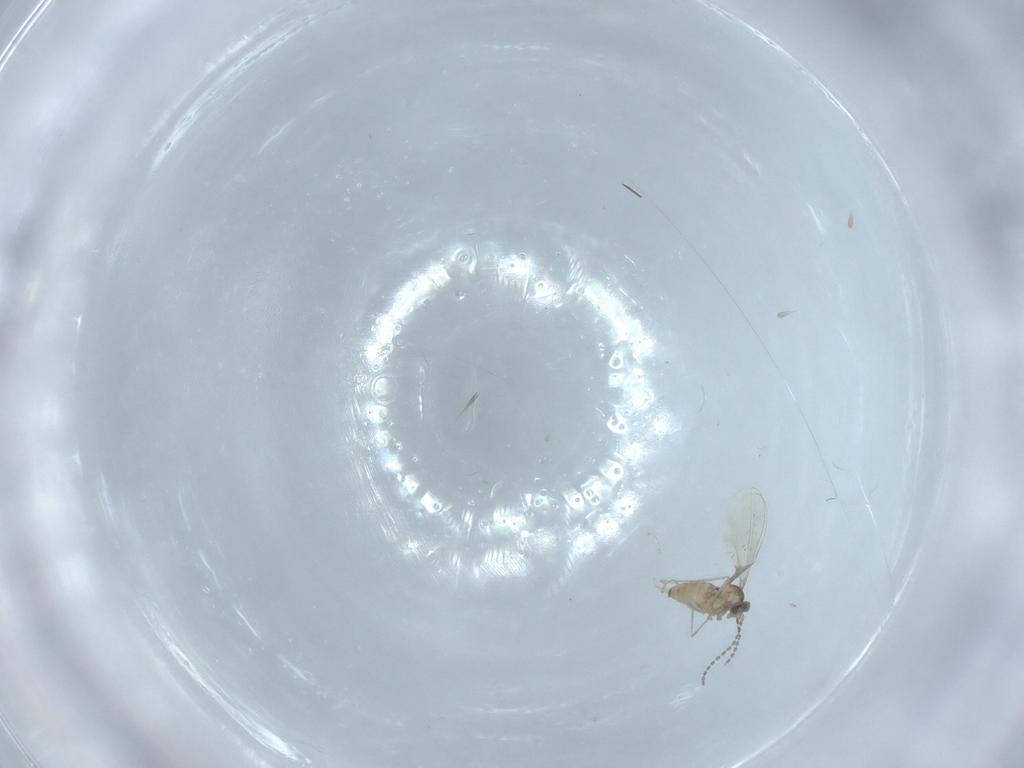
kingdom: Animalia
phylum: Arthropoda
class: Insecta
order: Diptera
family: Cecidomyiidae
